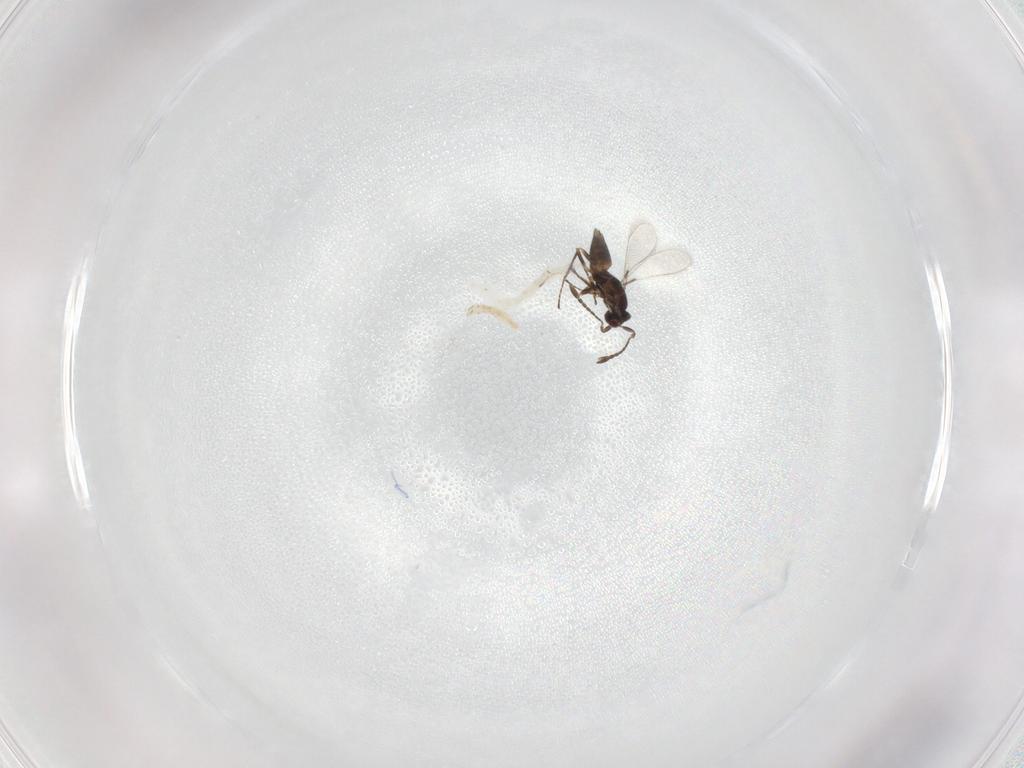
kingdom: Animalia
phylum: Arthropoda
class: Insecta
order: Hymenoptera
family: Mymaridae
